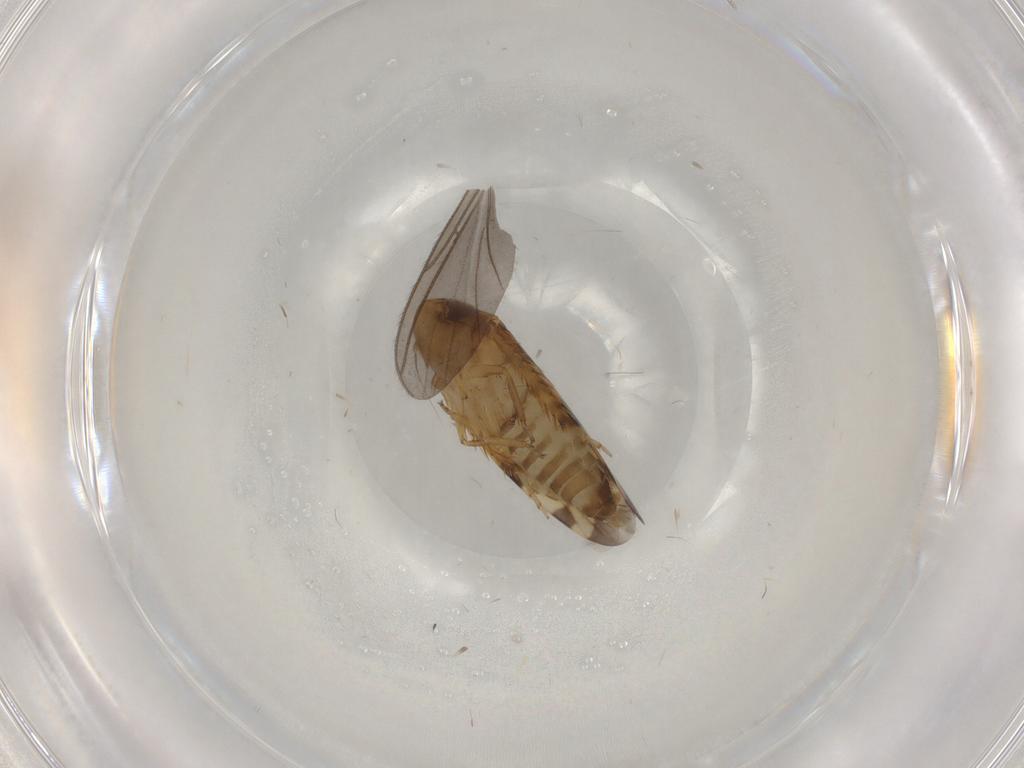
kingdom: Animalia
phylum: Arthropoda
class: Insecta
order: Hemiptera
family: Cicadellidae
